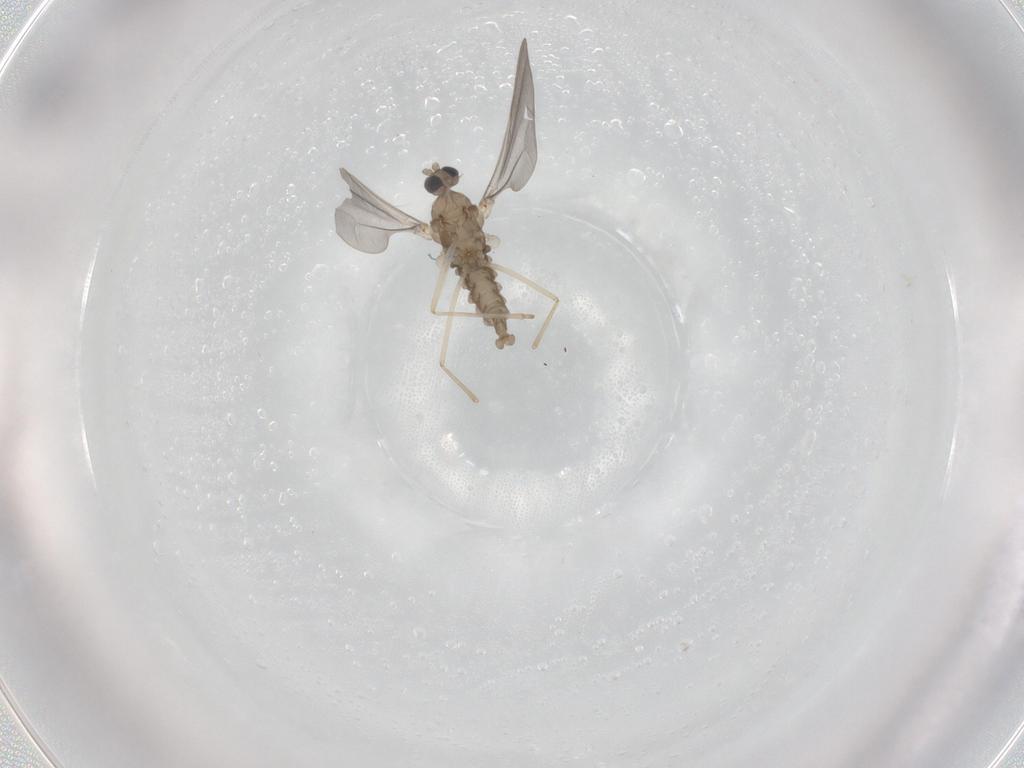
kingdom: Animalia
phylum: Arthropoda
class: Insecta
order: Diptera
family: Cecidomyiidae
